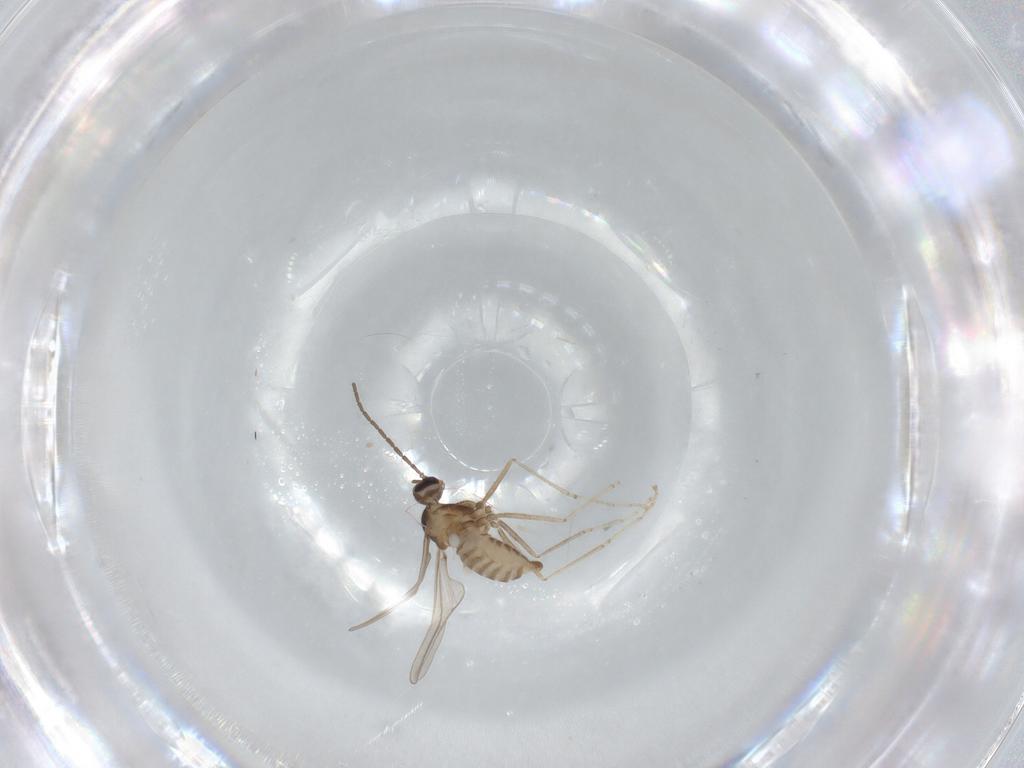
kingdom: Animalia
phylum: Arthropoda
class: Insecta
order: Diptera
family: Cecidomyiidae
